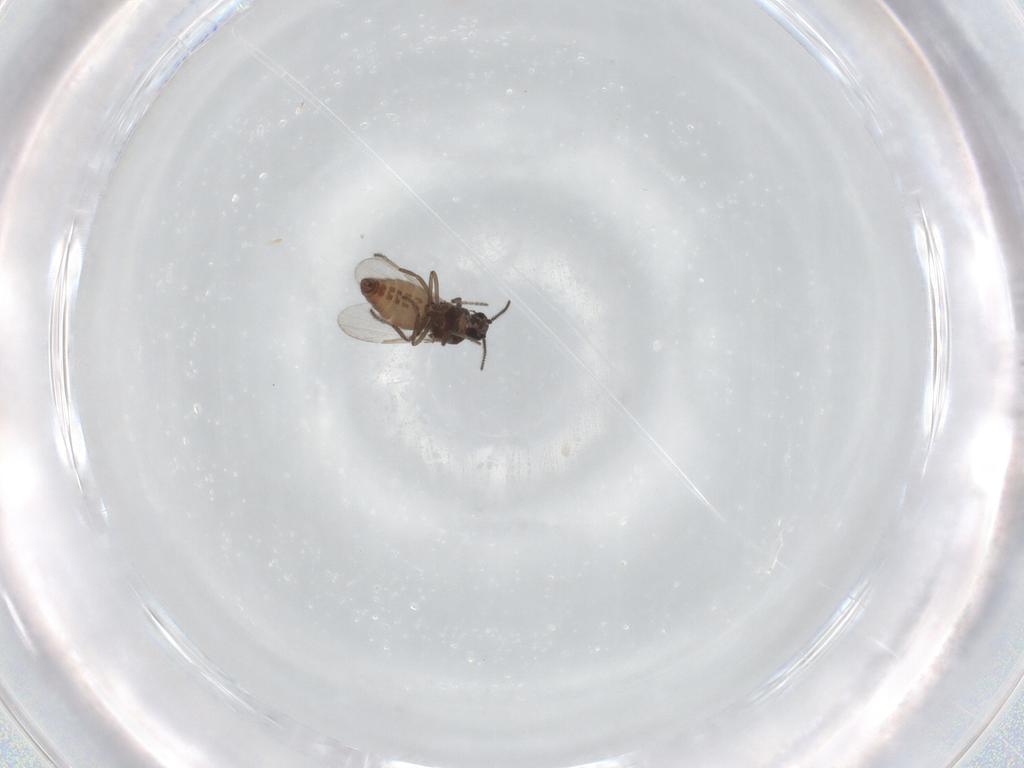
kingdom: Animalia
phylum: Arthropoda
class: Insecta
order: Diptera
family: Ceratopogonidae
